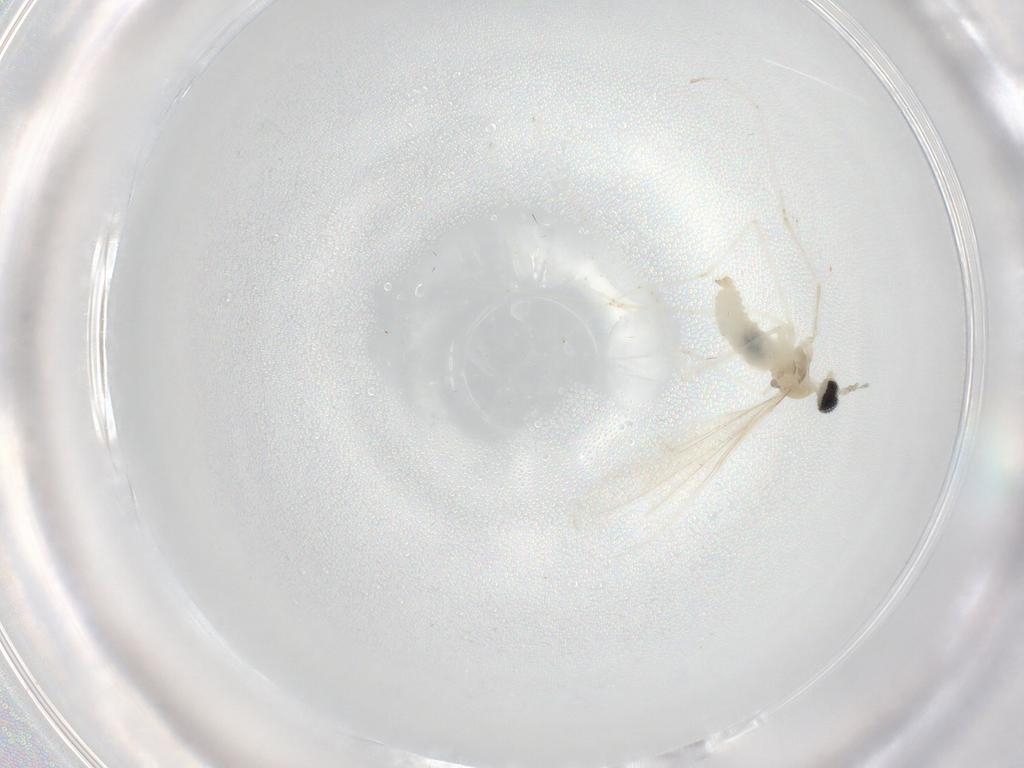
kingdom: Animalia
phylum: Arthropoda
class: Insecta
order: Diptera
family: Cecidomyiidae
